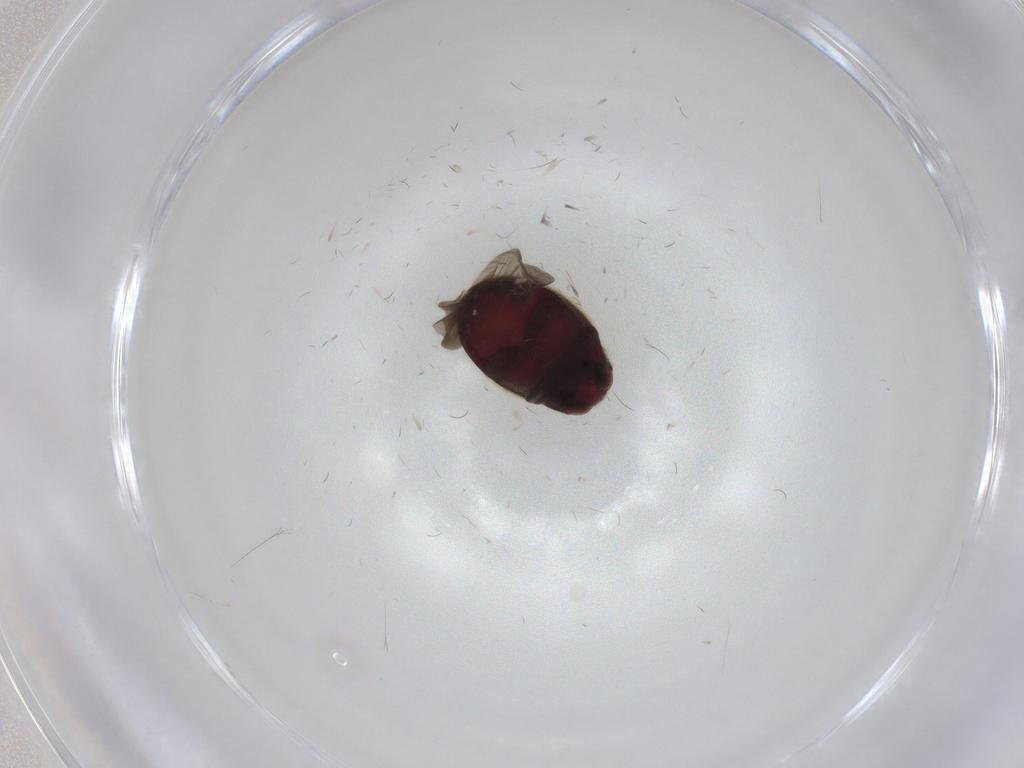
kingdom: Animalia
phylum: Arthropoda
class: Insecta
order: Coleoptera
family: Ptinidae
